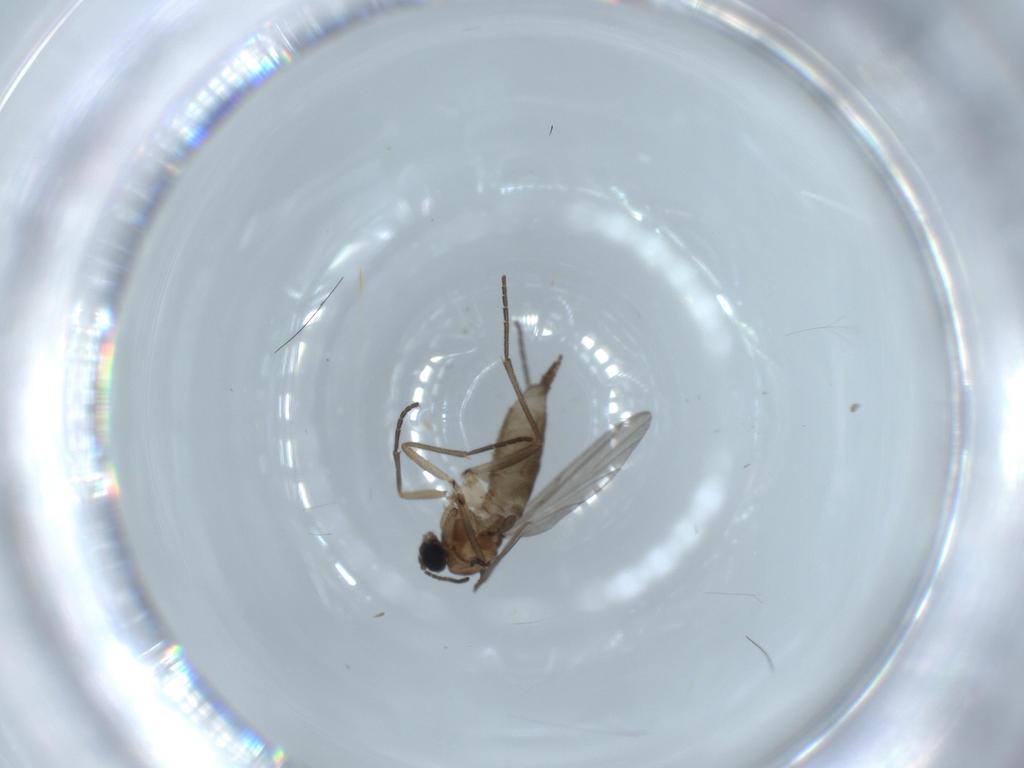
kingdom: Animalia
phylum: Arthropoda
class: Insecta
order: Diptera
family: Sciaridae
